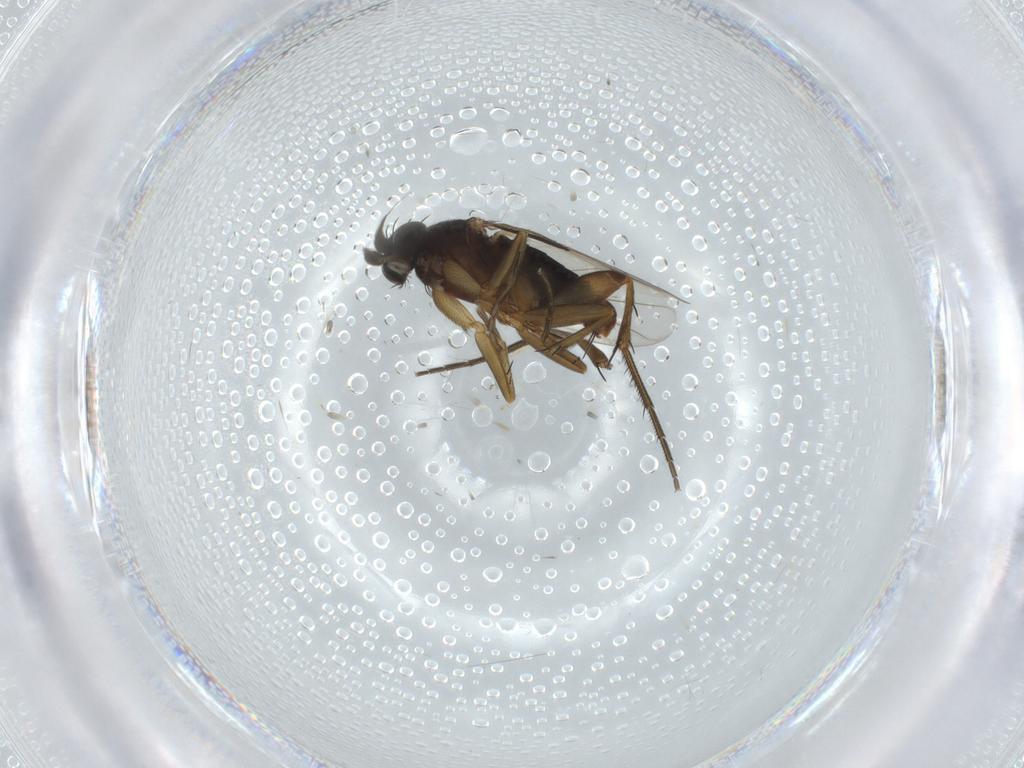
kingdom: Animalia
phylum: Arthropoda
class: Insecta
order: Diptera
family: Phoridae
